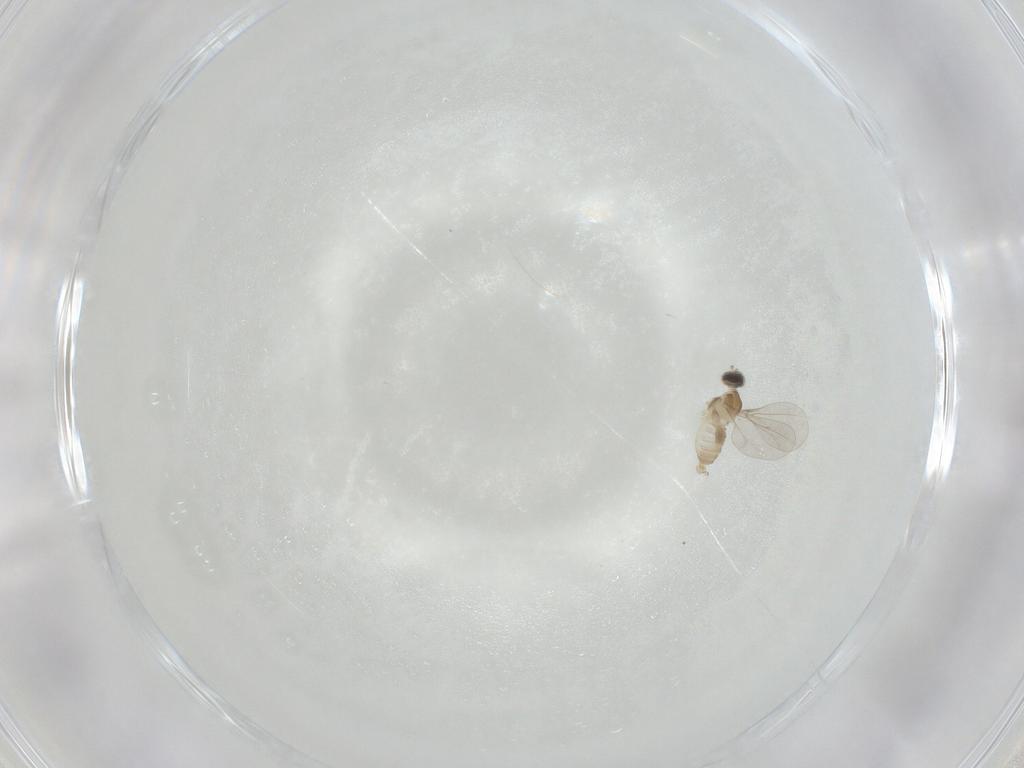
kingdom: Animalia
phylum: Arthropoda
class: Insecta
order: Diptera
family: Cecidomyiidae
